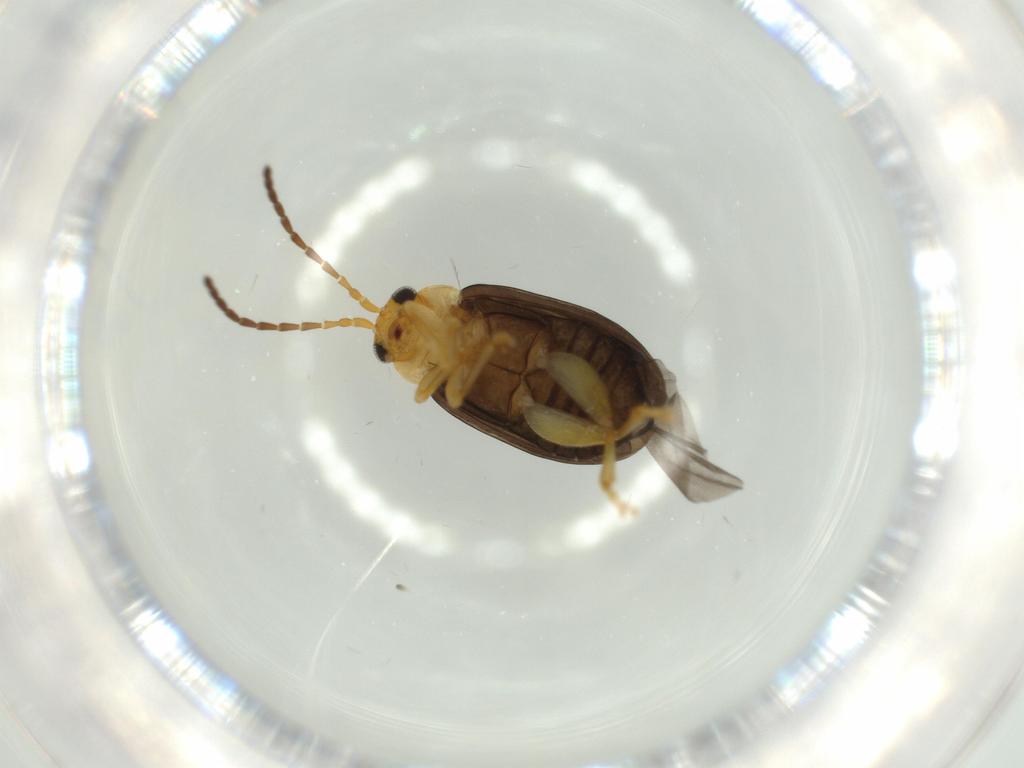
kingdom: Animalia
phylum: Arthropoda
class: Insecta
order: Coleoptera
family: Chrysomelidae
